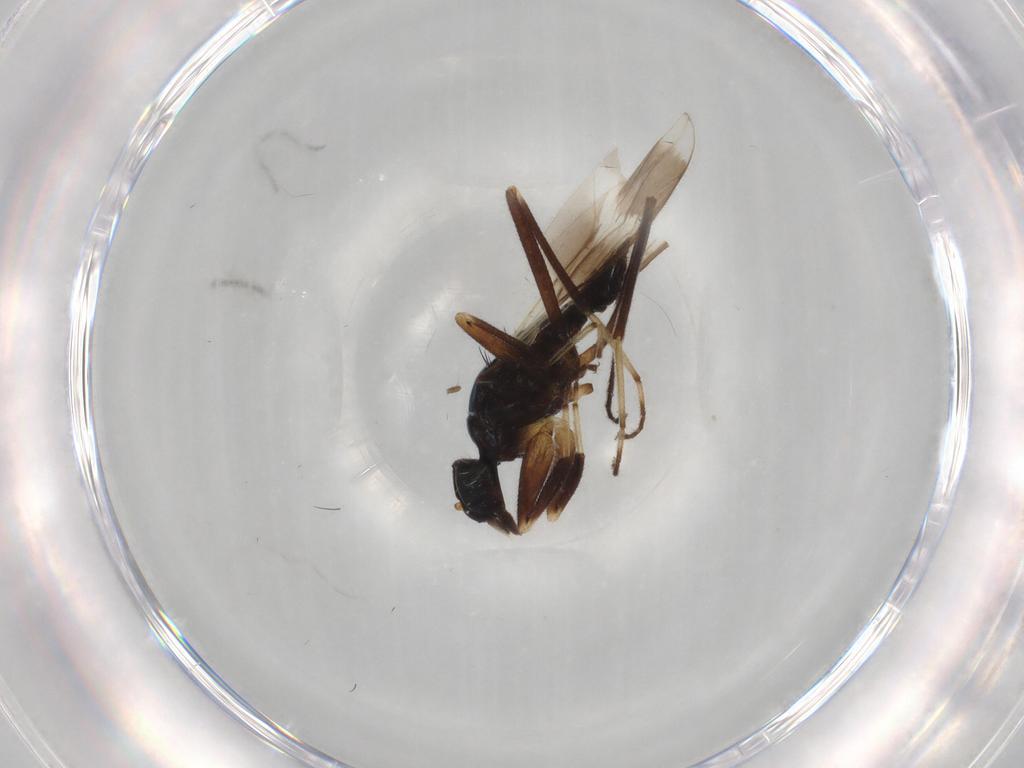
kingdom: Animalia
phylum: Arthropoda
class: Insecta
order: Diptera
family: Hybotidae
